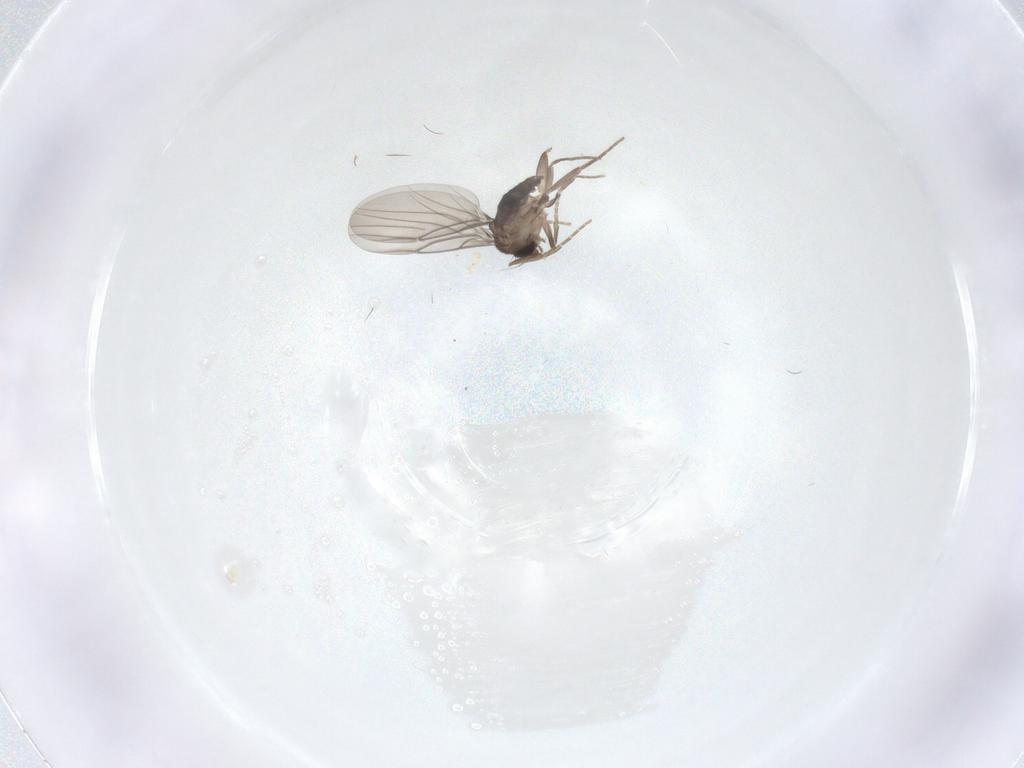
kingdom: Animalia
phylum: Arthropoda
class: Insecta
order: Diptera
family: Phoridae
